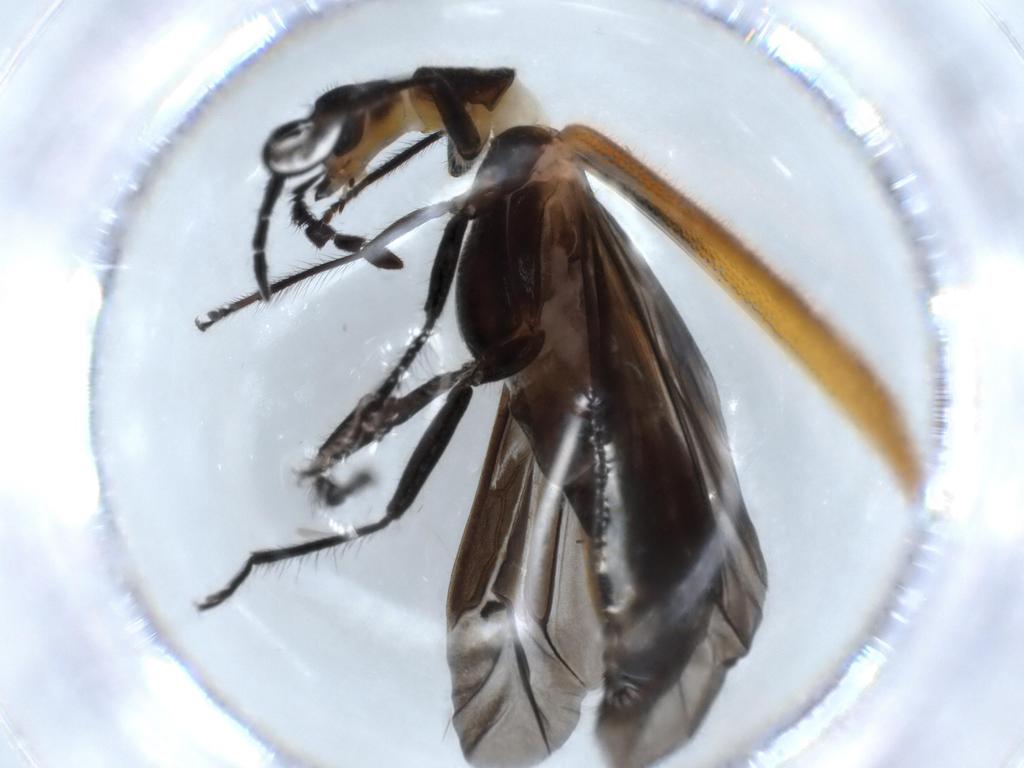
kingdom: Animalia
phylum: Arthropoda
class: Insecta
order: Coleoptera
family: Cleridae
